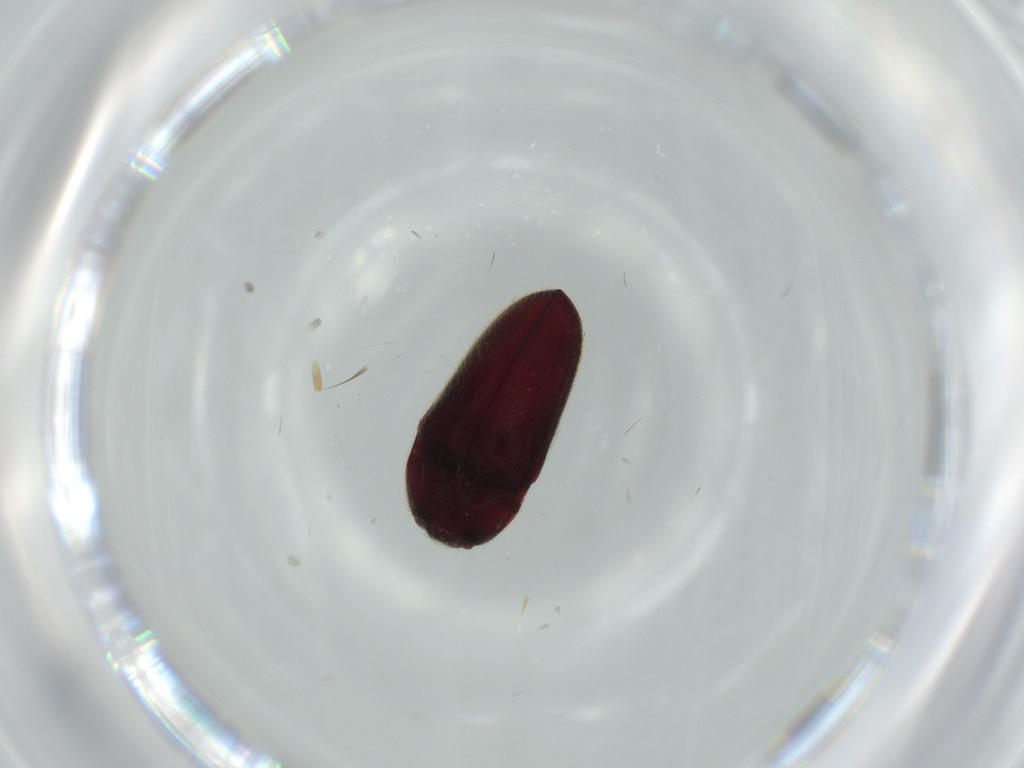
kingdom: Animalia
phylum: Arthropoda
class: Insecta
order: Coleoptera
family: Throscidae
